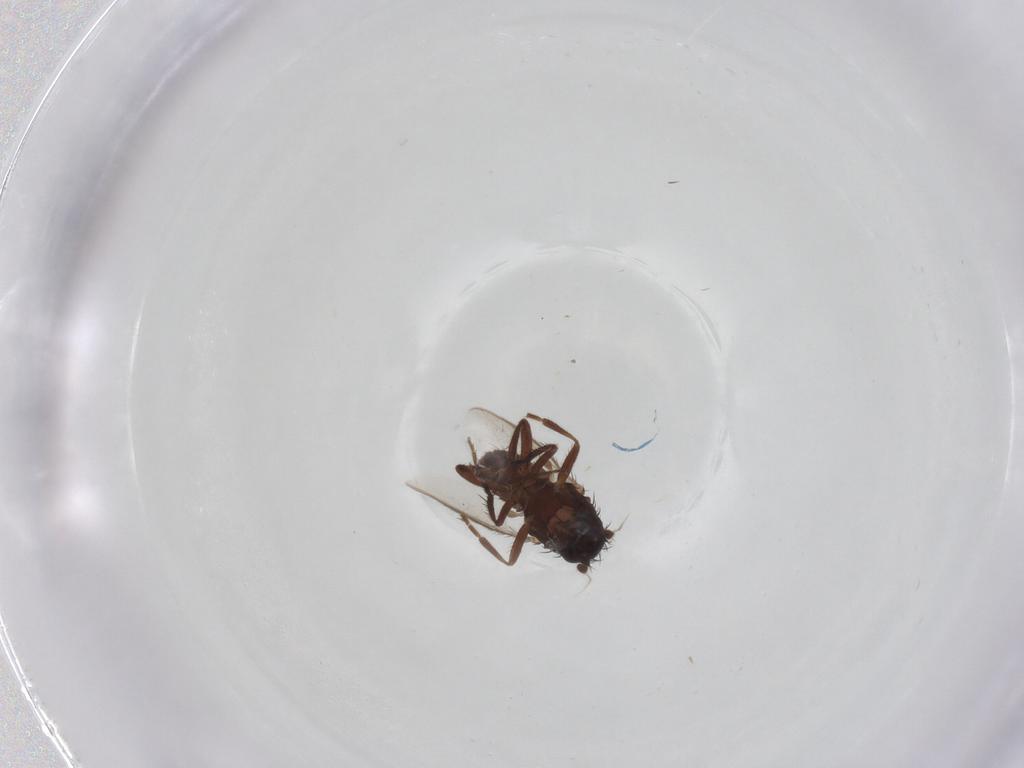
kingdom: Animalia
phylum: Arthropoda
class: Insecta
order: Diptera
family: Sphaeroceridae
